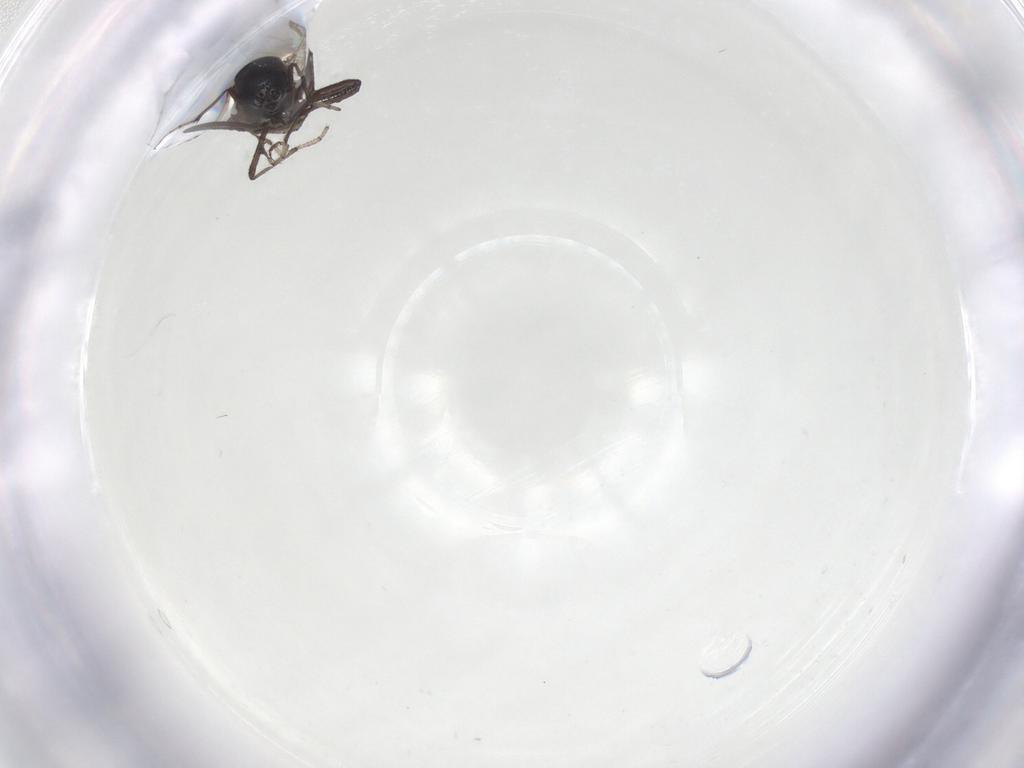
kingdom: Animalia
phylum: Arthropoda
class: Insecta
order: Diptera
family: Ceratopogonidae
